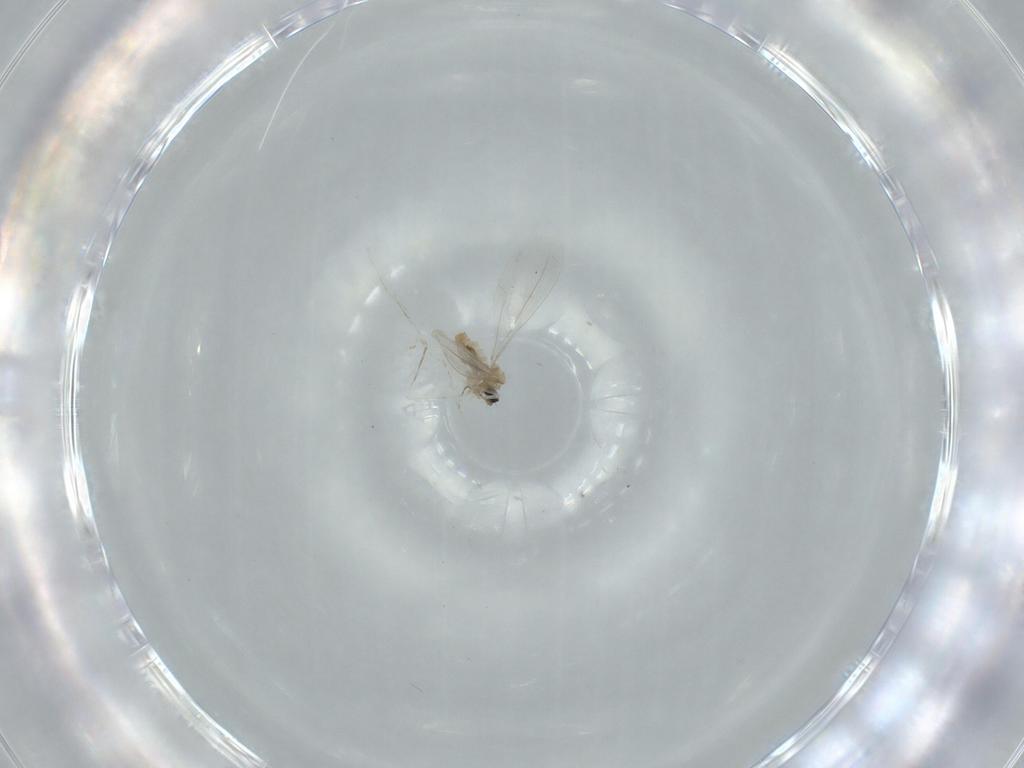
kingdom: Animalia
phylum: Arthropoda
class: Insecta
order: Diptera
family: Cecidomyiidae
